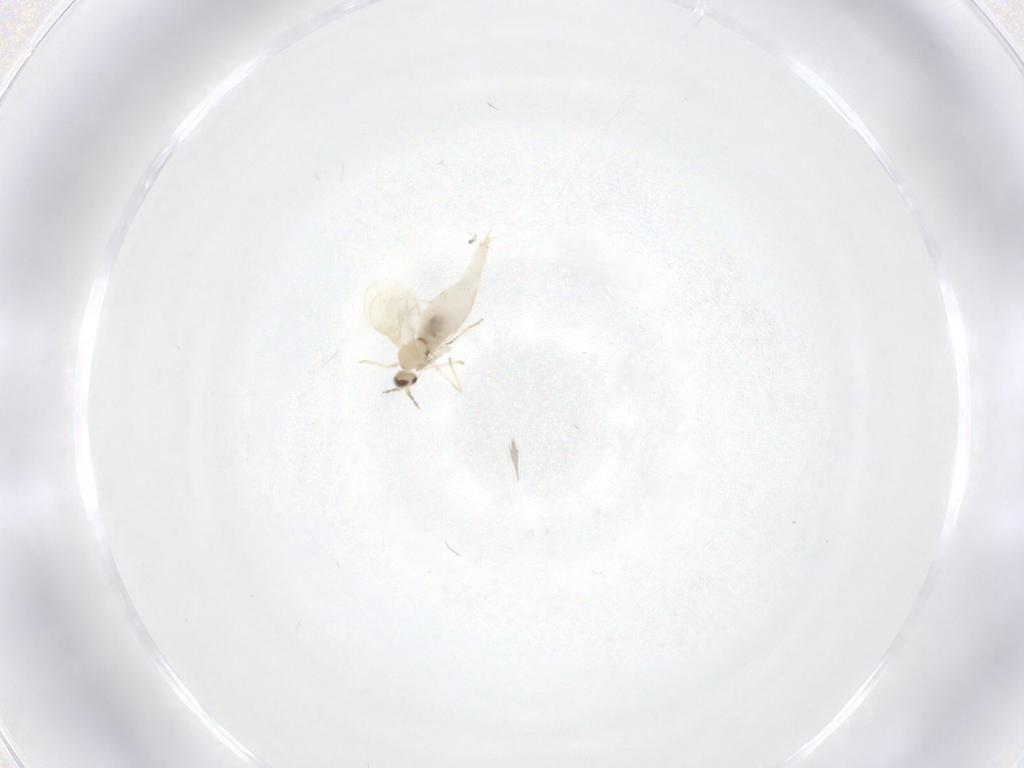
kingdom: Animalia
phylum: Arthropoda
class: Insecta
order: Diptera
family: Cecidomyiidae
